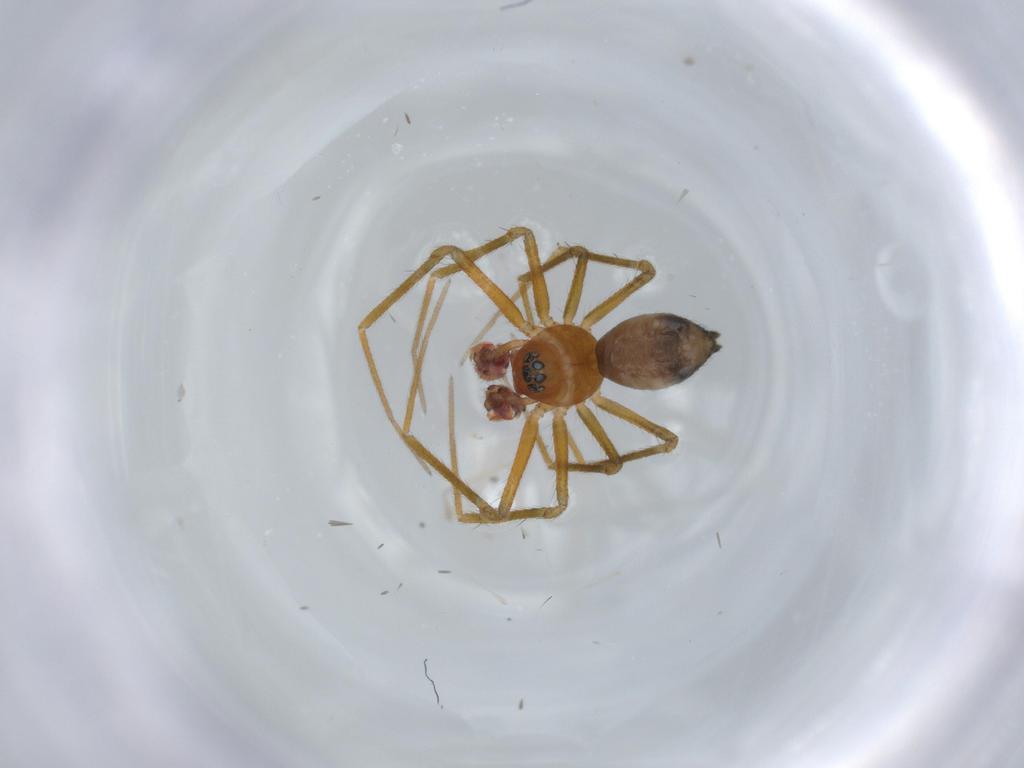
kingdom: Animalia
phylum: Arthropoda
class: Arachnida
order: Araneae
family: Linyphiidae
